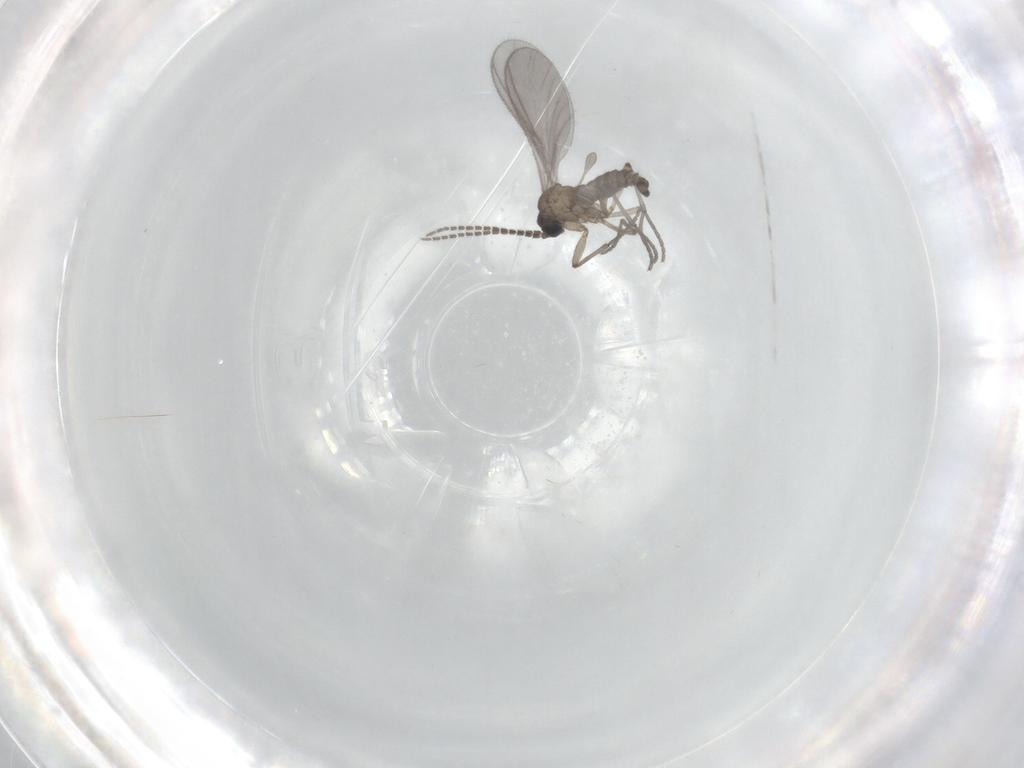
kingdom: Animalia
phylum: Arthropoda
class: Insecta
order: Diptera
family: Sciaridae
